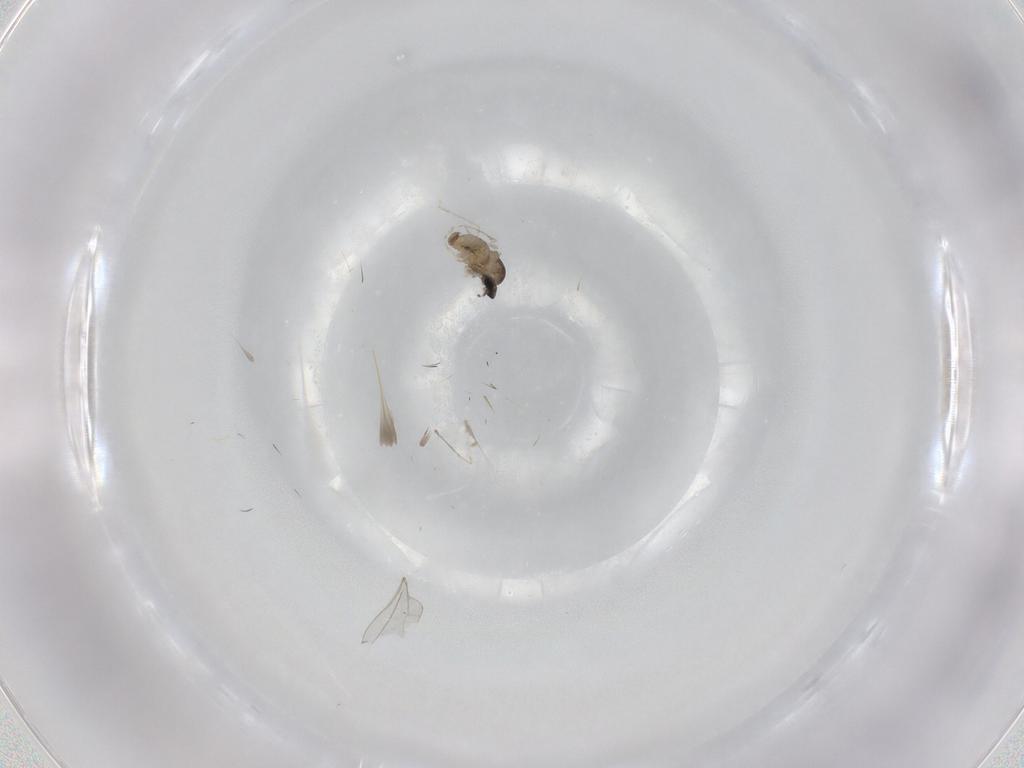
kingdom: Animalia
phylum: Arthropoda
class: Insecta
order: Diptera
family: Cecidomyiidae
